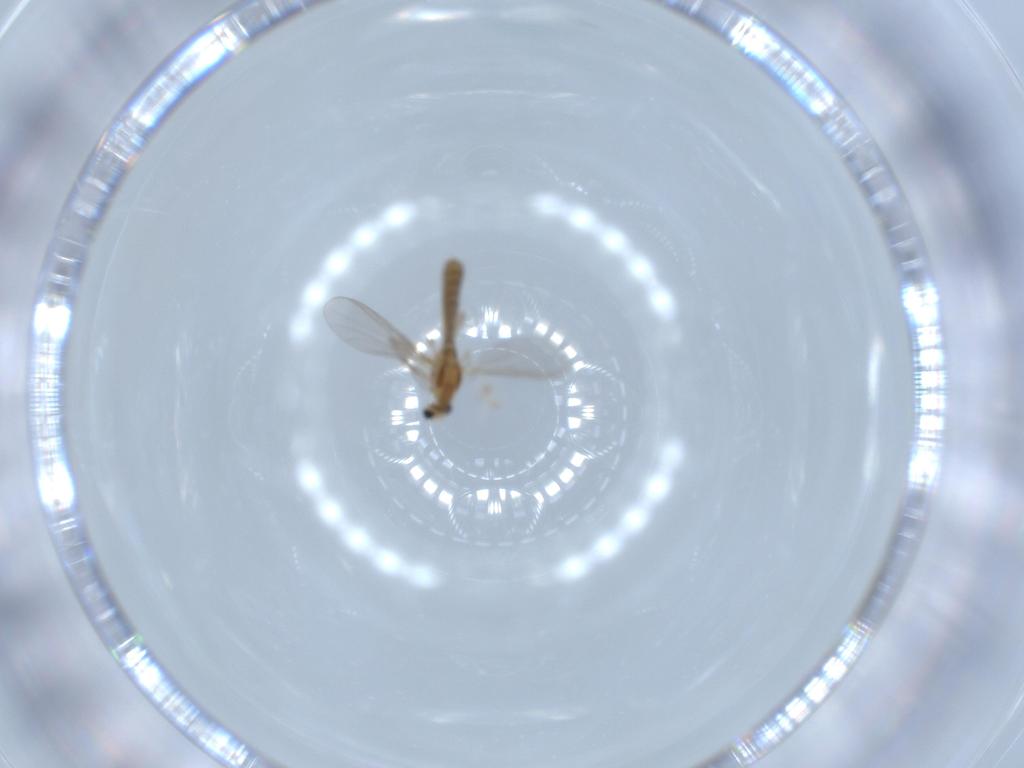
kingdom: Animalia
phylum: Arthropoda
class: Insecta
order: Diptera
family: Chironomidae
